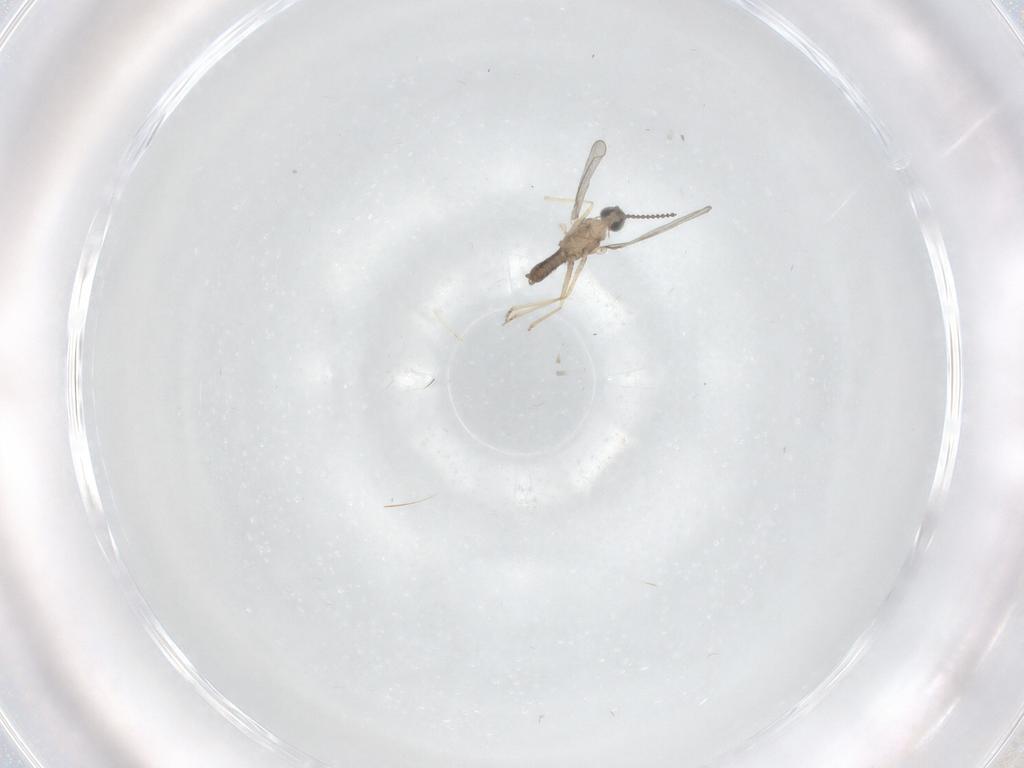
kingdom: Animalia
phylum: Arthropoda
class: Insecta
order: Diptera
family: Cecidomyiidae
